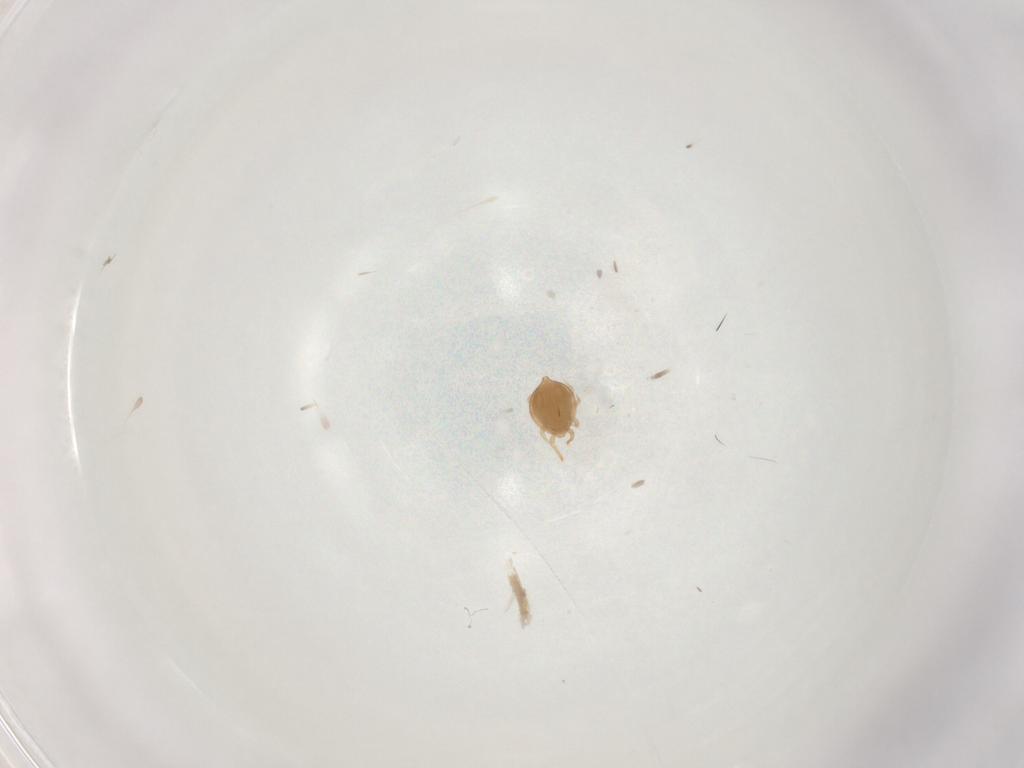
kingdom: Animalia
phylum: Arthropoda
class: Arachnida
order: Mesostigmata
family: Polyaspididae
